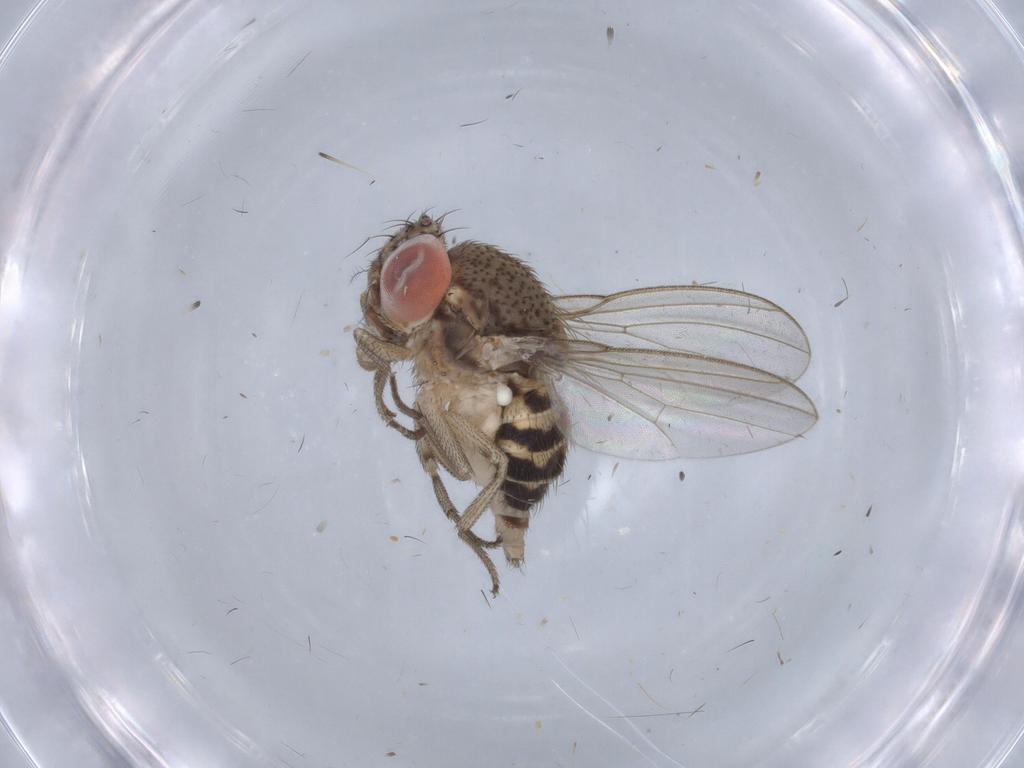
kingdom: Animalia
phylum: Arthropoda
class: Insecta
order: Diptera
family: Drosophilidae
